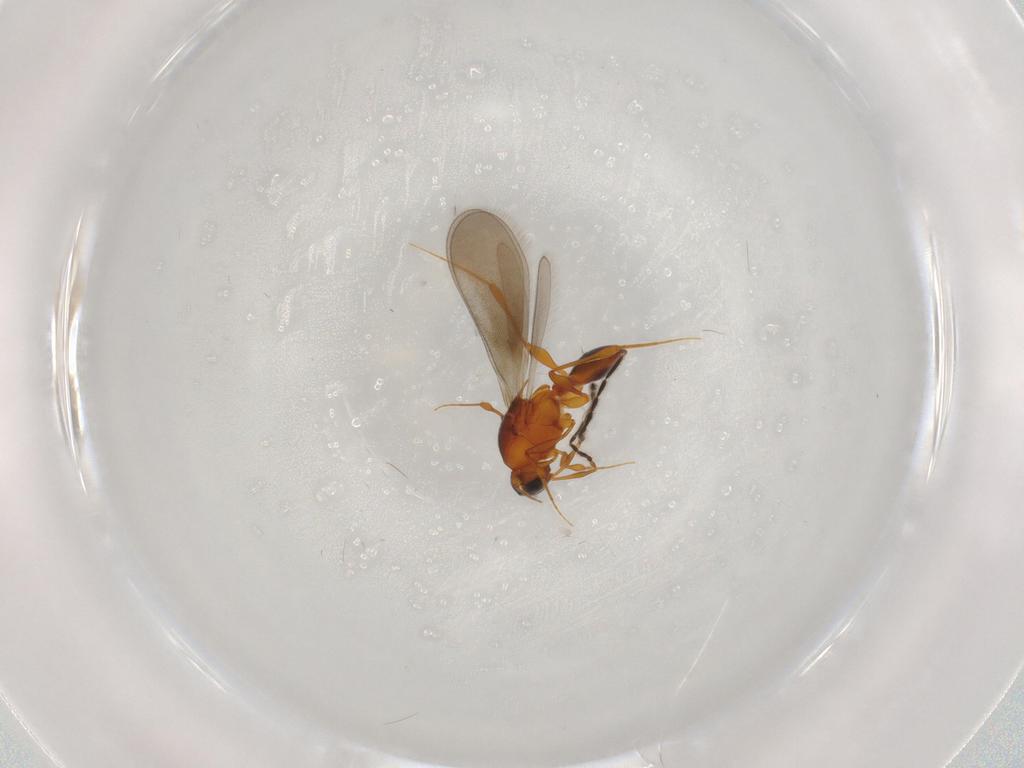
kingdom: Animalia
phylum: Arthropoda
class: Insecta
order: Hymenoptera
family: Platygastridae
